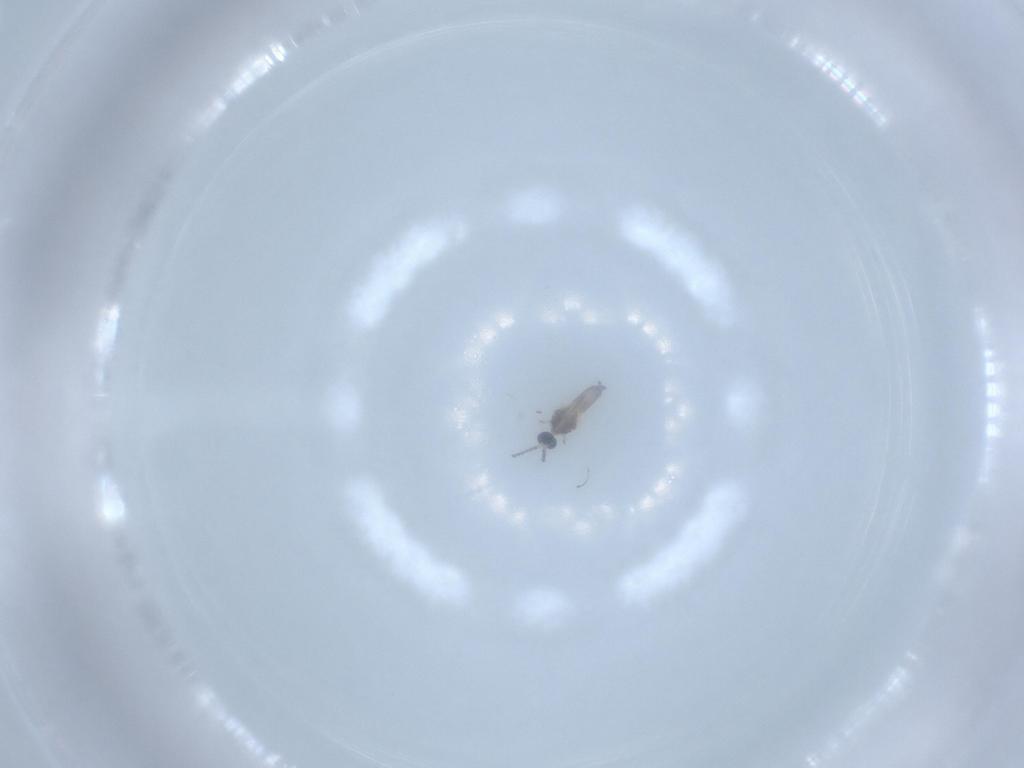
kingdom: Animalia
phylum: Arthropoda
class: Insecta
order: Diptera
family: Cecidomyiidae
